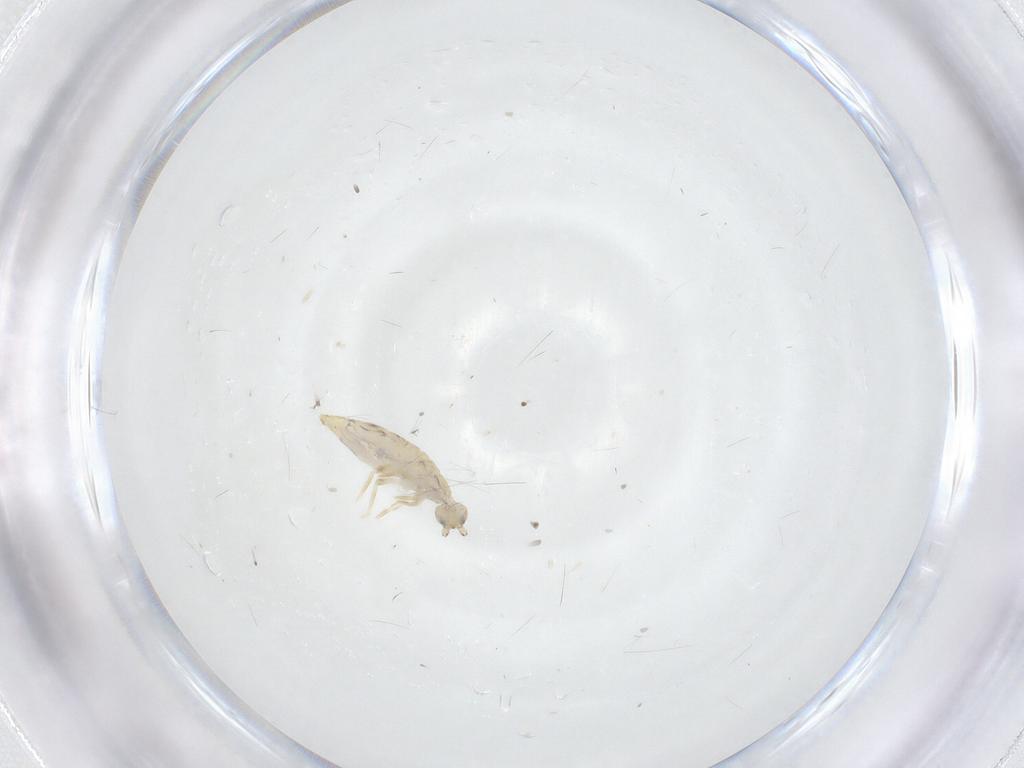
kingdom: Animalia
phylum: Arthropoda
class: Collembola
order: Entomobryomorpha
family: Entomobryidae
